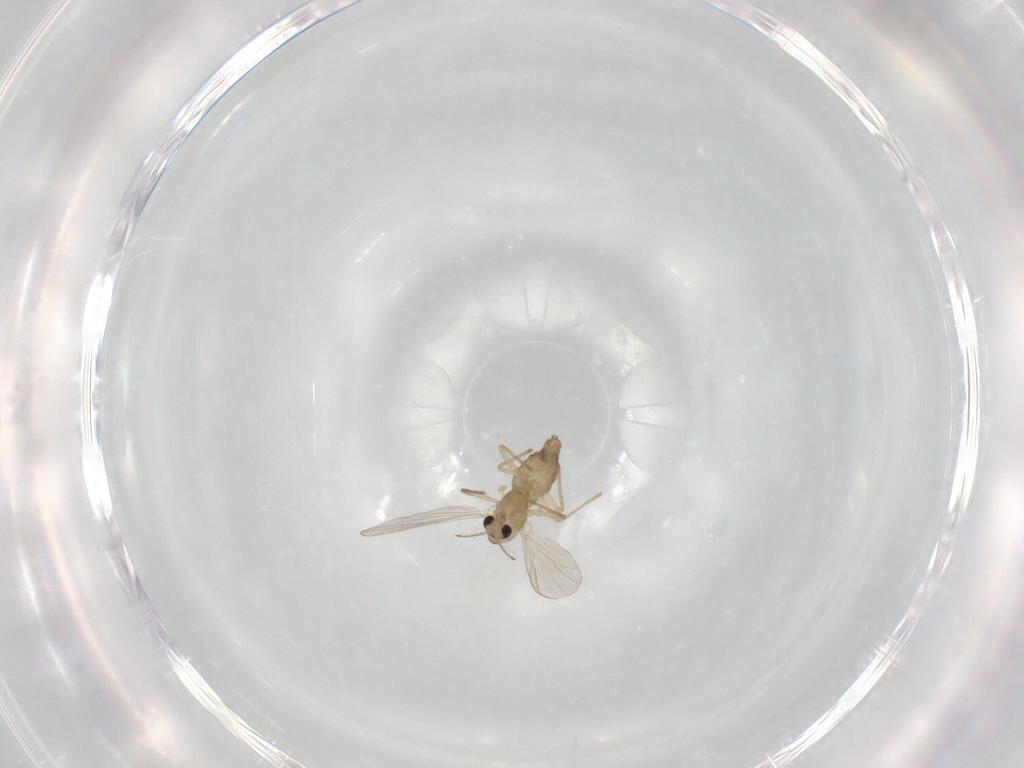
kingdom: Animalia
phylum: Arthropoda
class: Insecta
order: Diptera
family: Chironomidae
